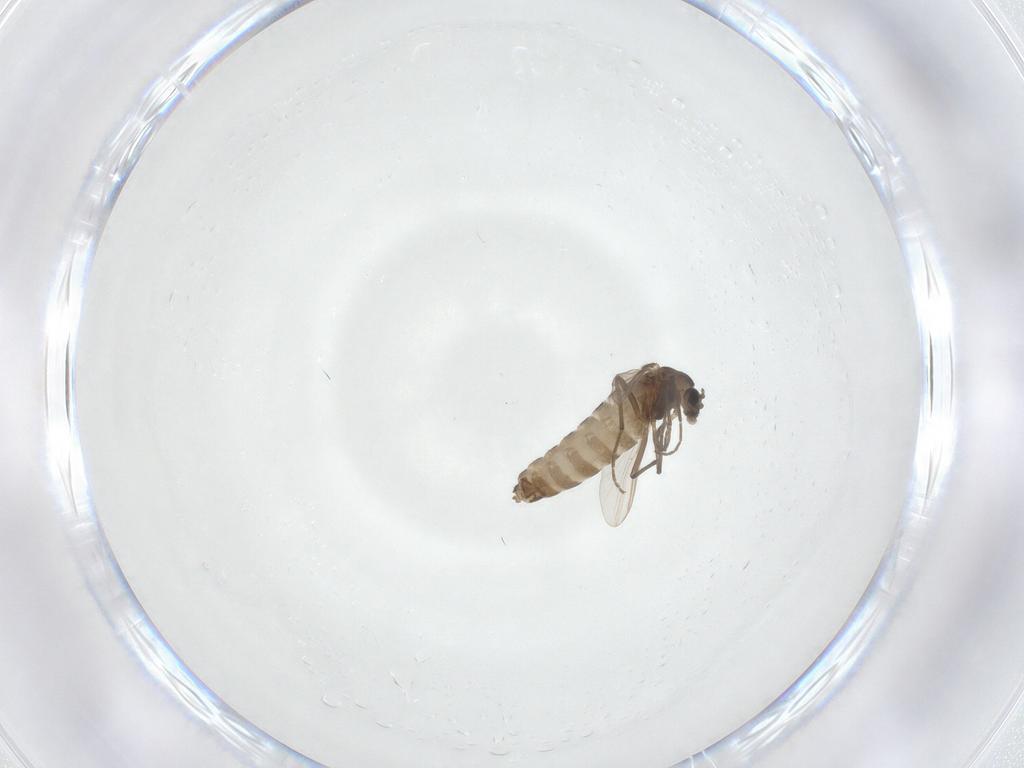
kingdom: Animalia
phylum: Arthropoda
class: Insecta
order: Diptera
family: Chironomidae
